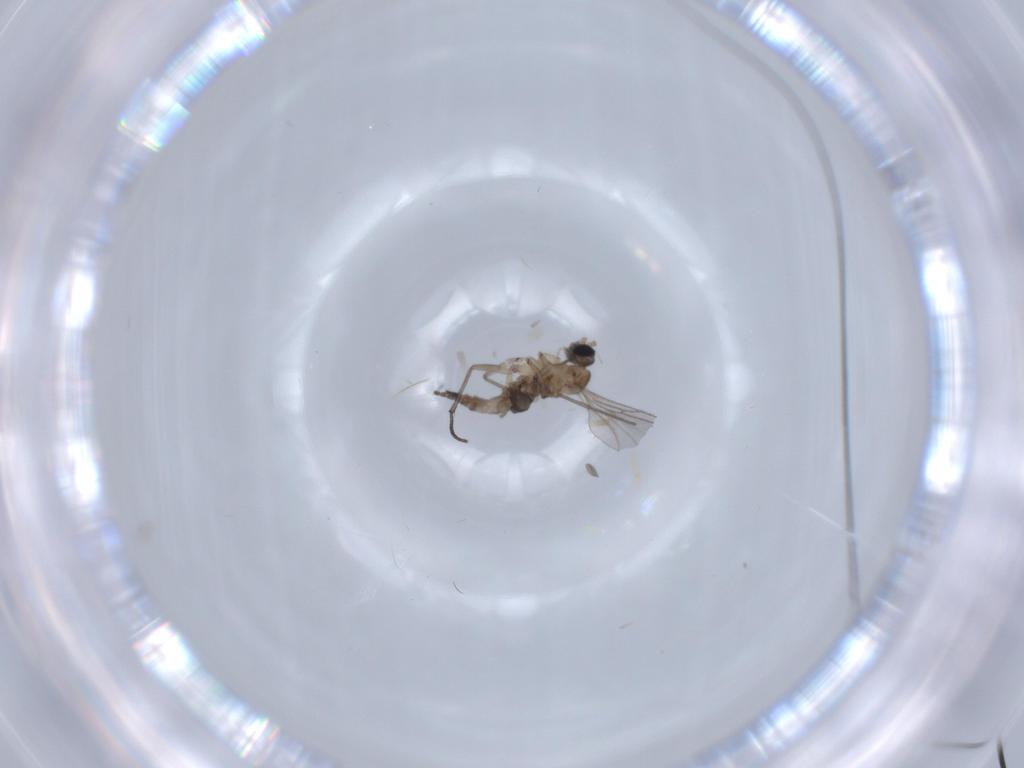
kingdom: Animalia
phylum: Arthropoda
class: Insecta
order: Diptera
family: Sciaridae
